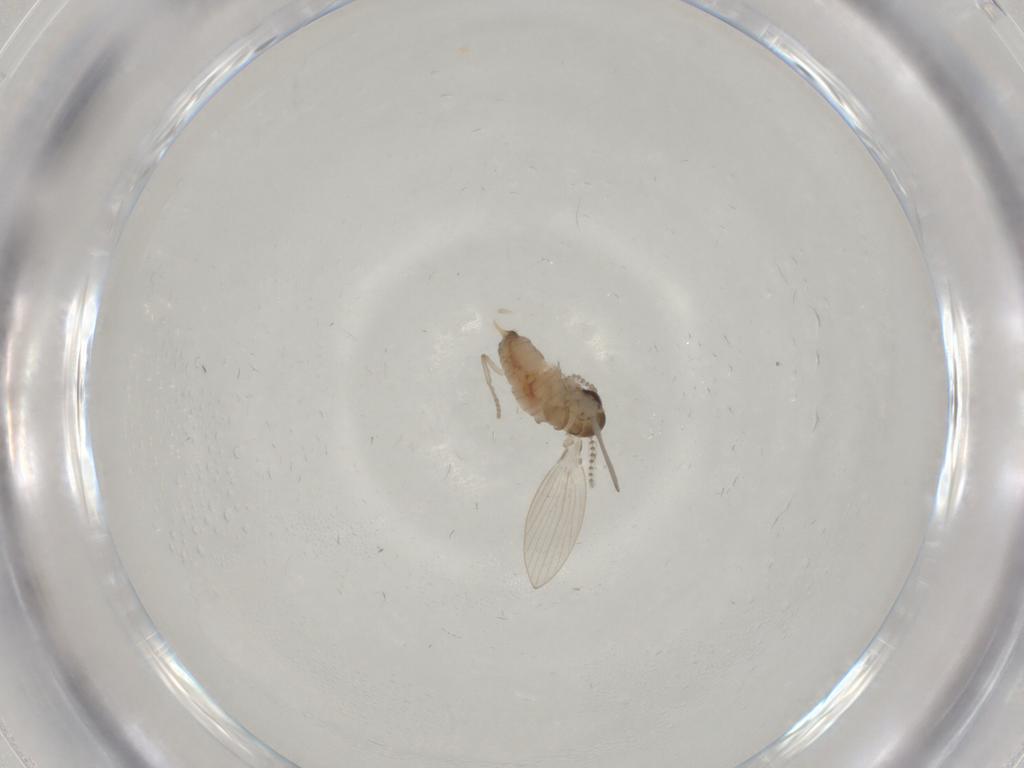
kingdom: Animalia
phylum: Arthropoda
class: Insecta
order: Diptera
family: Psychodidae
